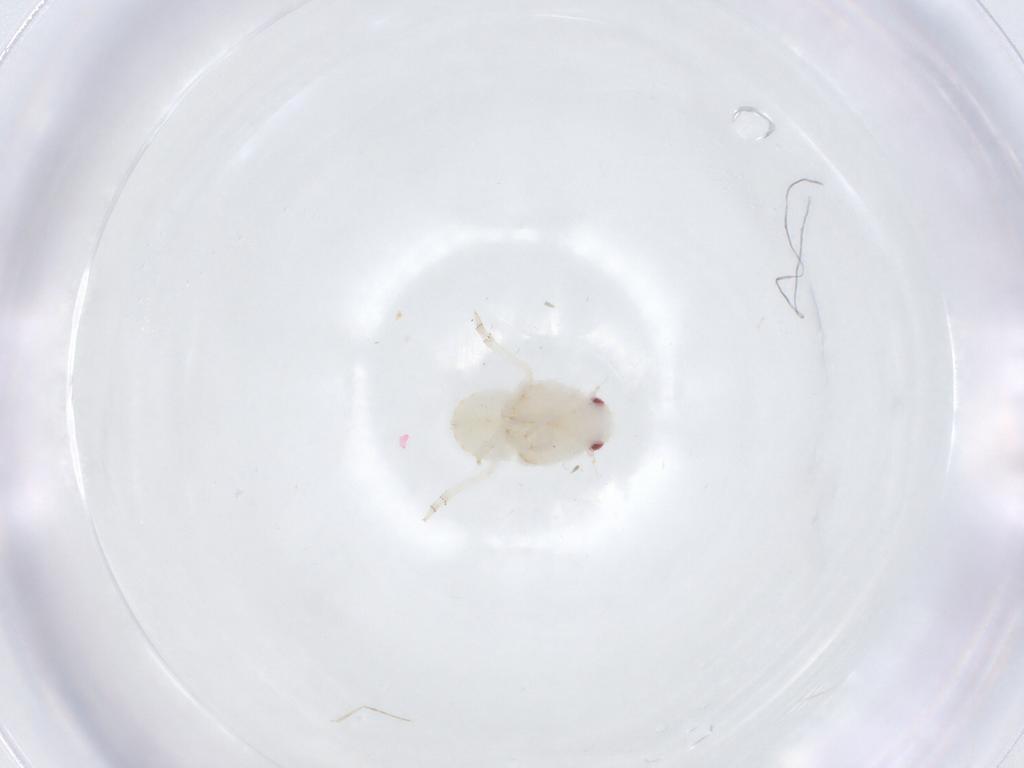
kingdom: Animalia
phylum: Arthropoda
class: Insecta
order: Hemiptera
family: Flatidae
